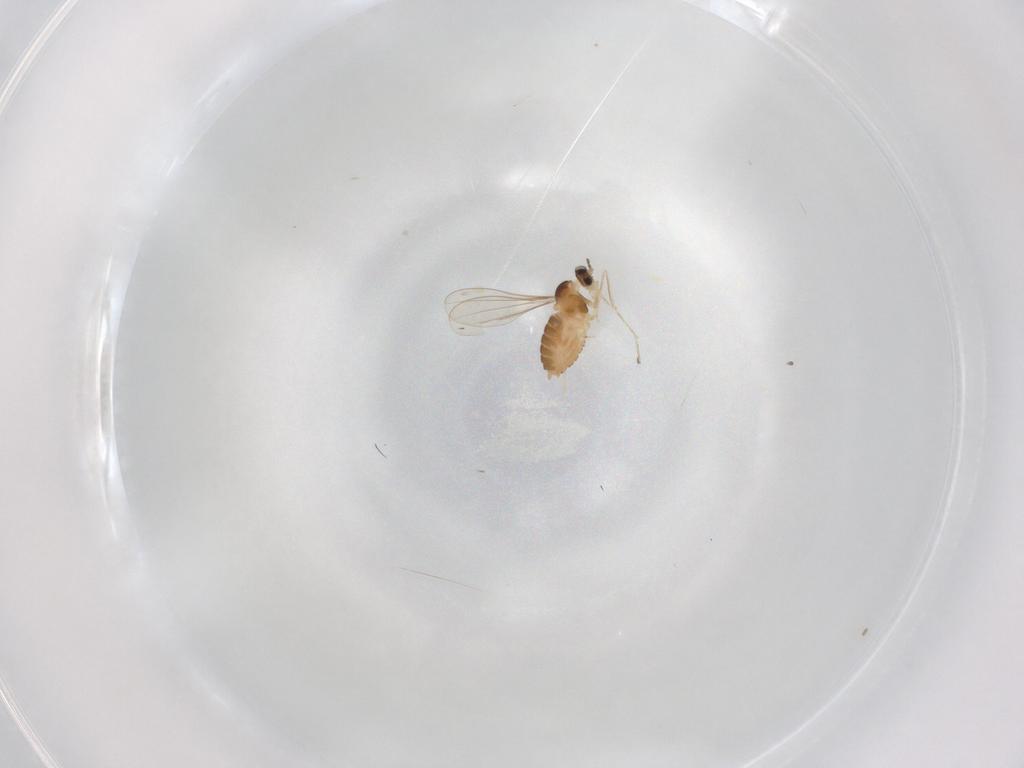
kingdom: Animalia
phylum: Arthropoda
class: Insecta
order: Diptera
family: Cecidomyiidae
